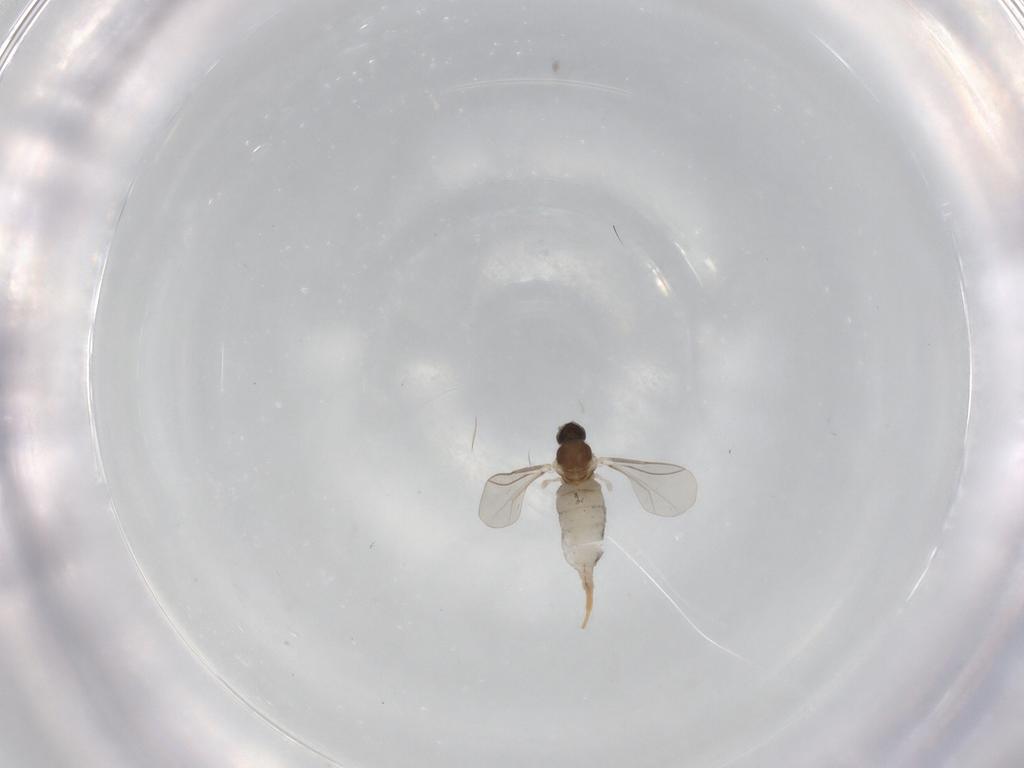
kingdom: Animalia
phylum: Arthropoda
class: Insecta
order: Diptera
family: Cecidomyiidae
